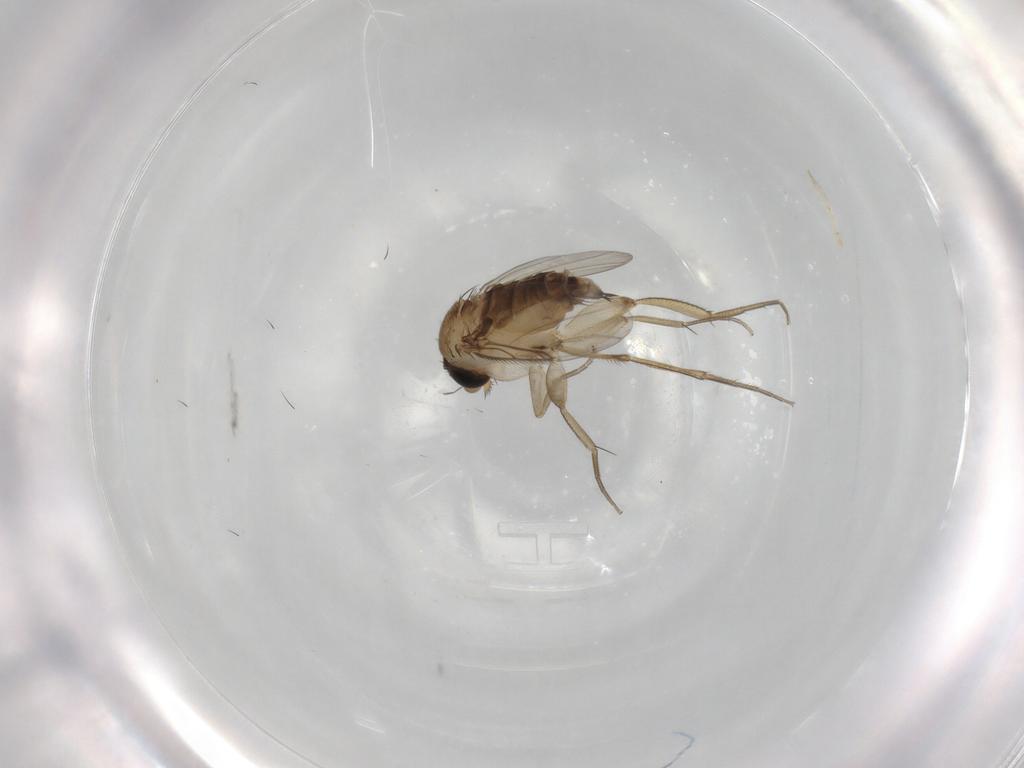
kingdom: Animalia
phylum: Arthropoda
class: Insecta
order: Diptera
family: Phoridae
